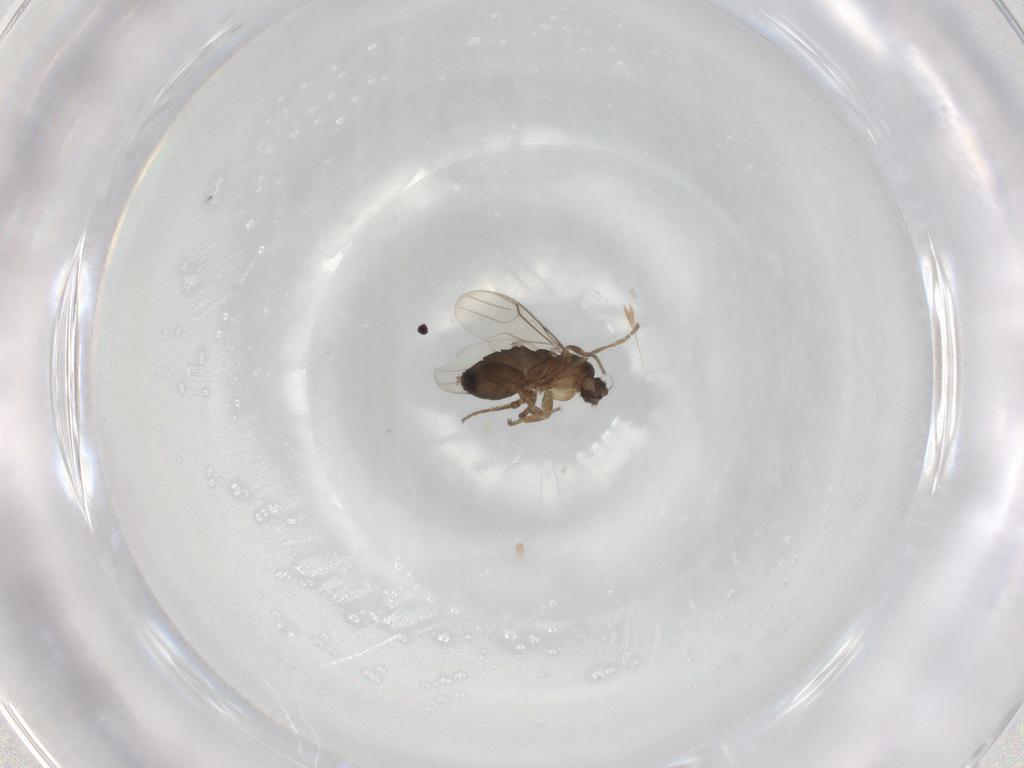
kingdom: Animalia
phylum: Arthropoda
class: Insecta
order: Diptera
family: Phoridae
